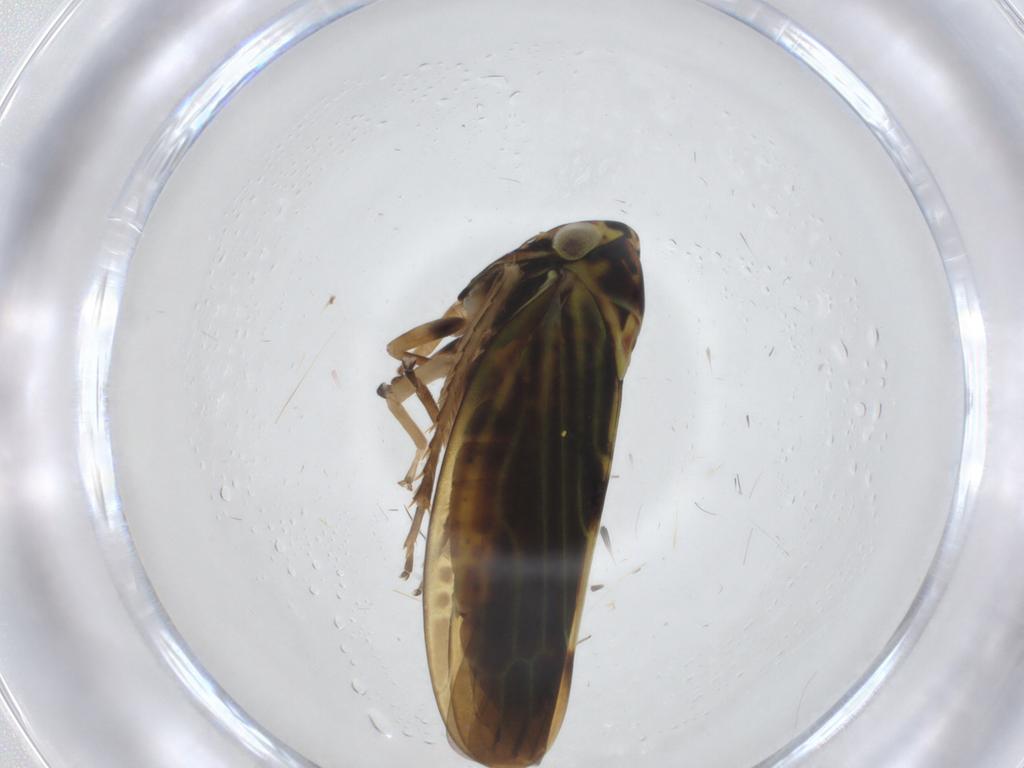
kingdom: Animalia
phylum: Arthropoda
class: Insecta
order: Hemiptera
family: Cicadellidae
